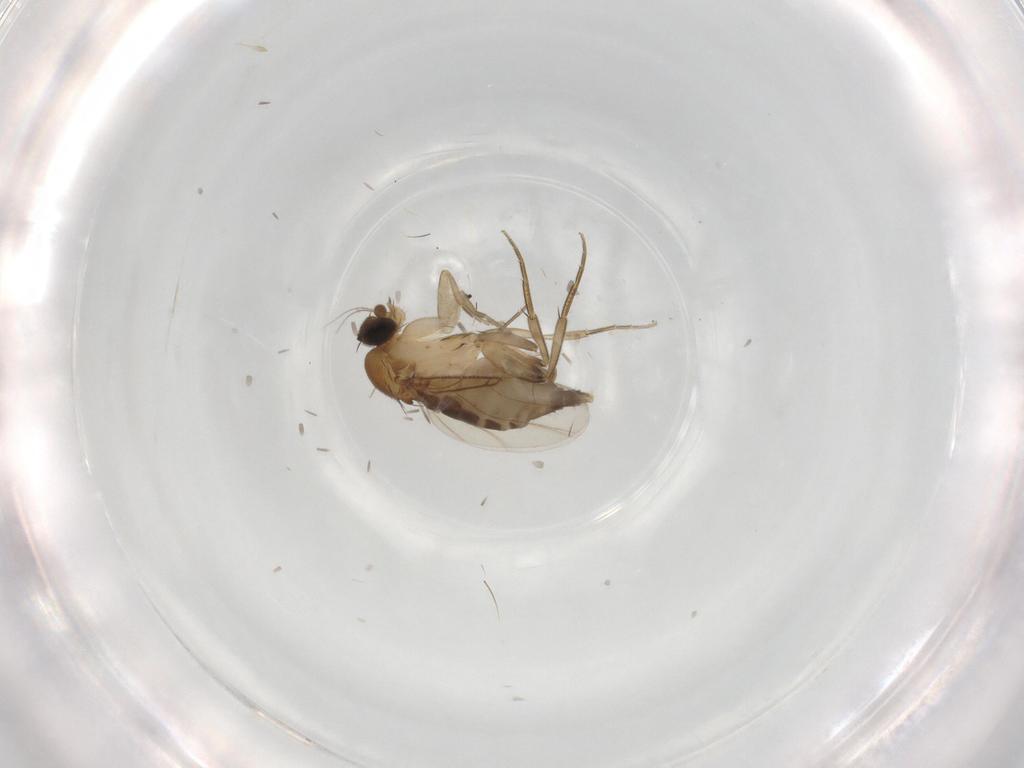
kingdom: Animalia
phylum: Arthropoda
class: Insecta
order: Diptera
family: Phoridae
